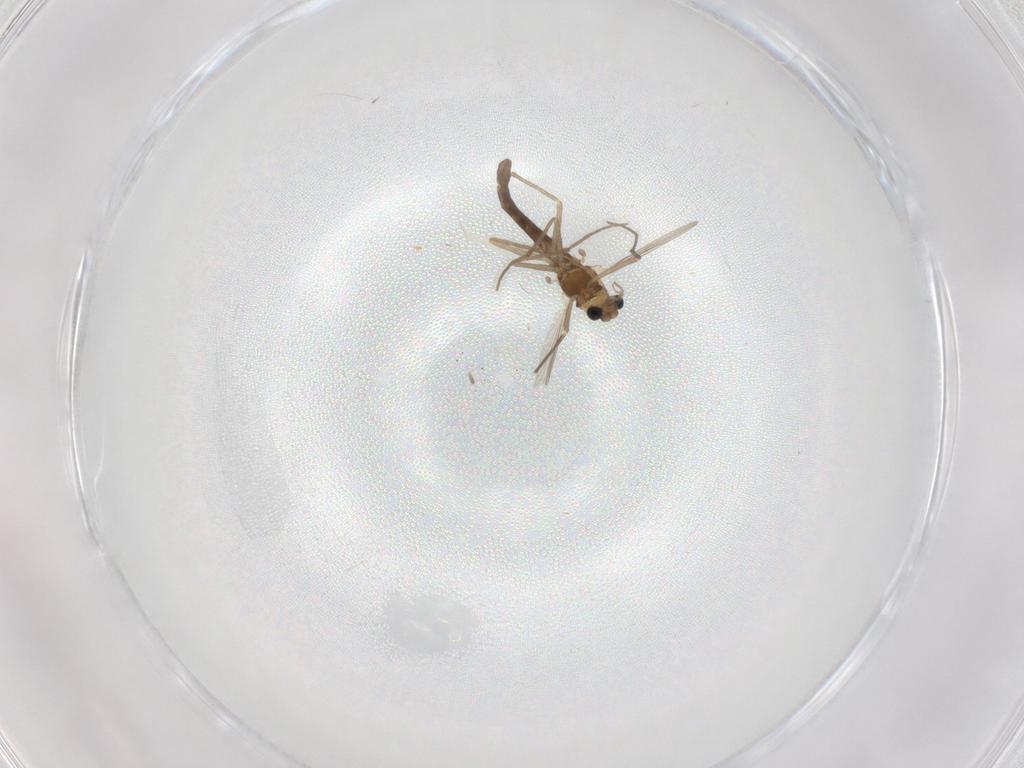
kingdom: Animalia
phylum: Arthropoda
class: Insecta
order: Diptera
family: Chironomidae
